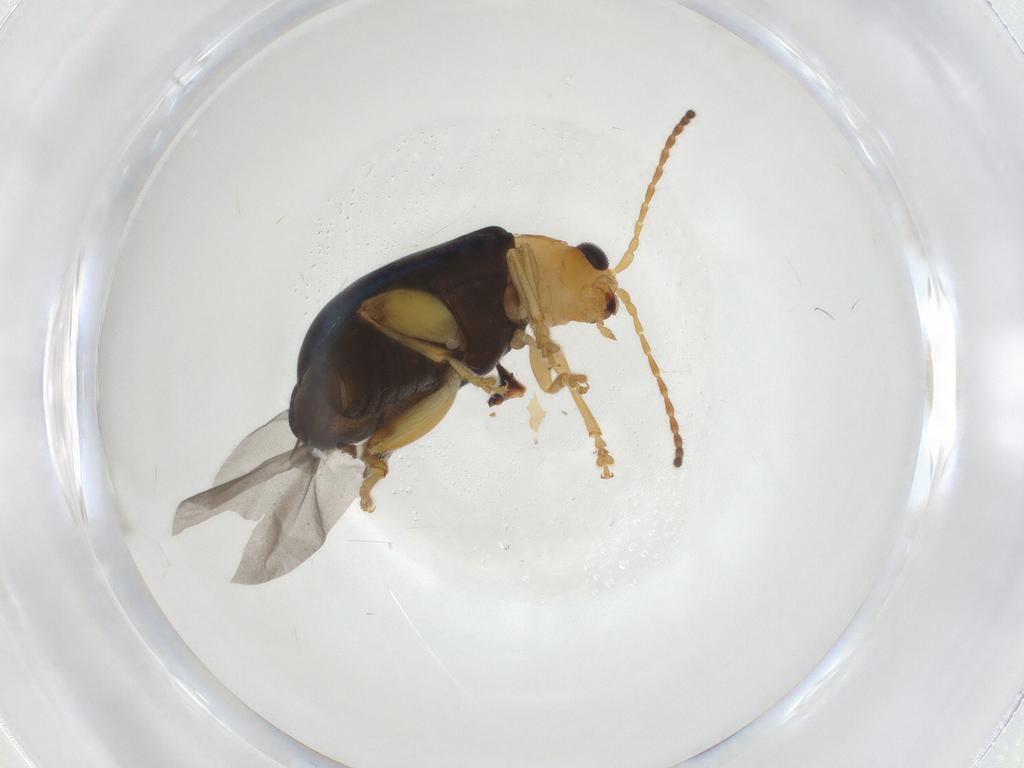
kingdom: Animalia
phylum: Arthropoda
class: Insecta
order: Coleoptera
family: Chrysomelidae
